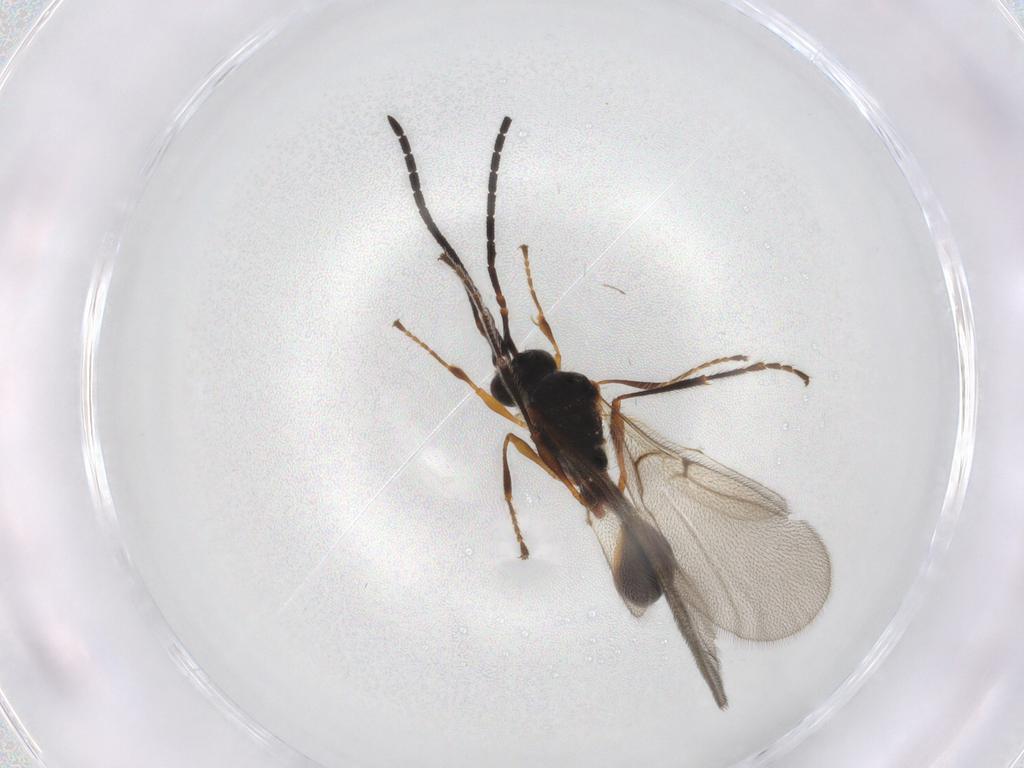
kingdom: Animalia
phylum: Arthropoda
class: Insecta
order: Hymenoptera
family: Diapriidae
